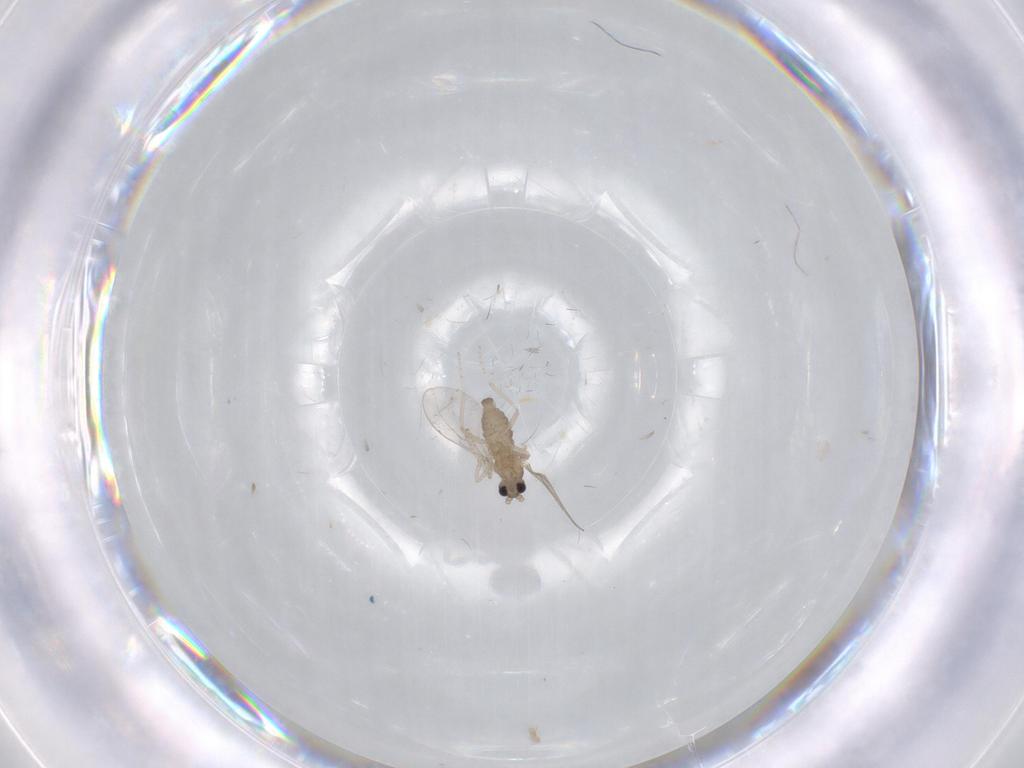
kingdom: Animalia
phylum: Arthropoda
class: Insecta
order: Diptera
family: Cecidomyiidae
